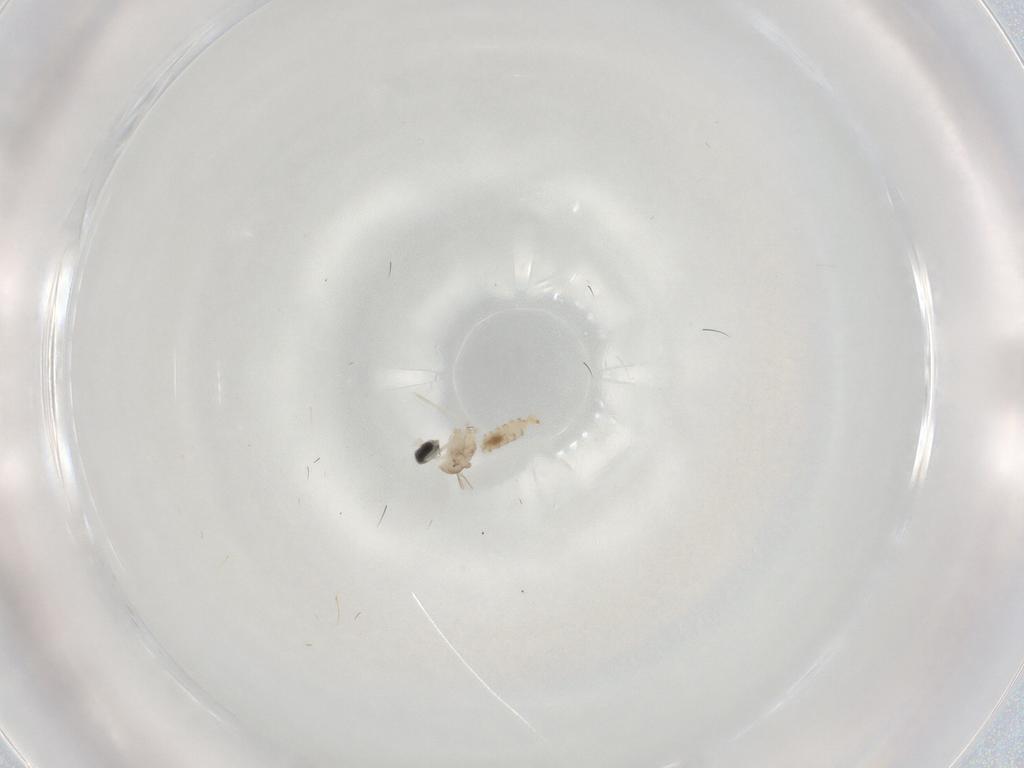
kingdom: Animalia
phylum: Arthropoda
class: Insecta
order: Diptera
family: Cecidomyiidae
